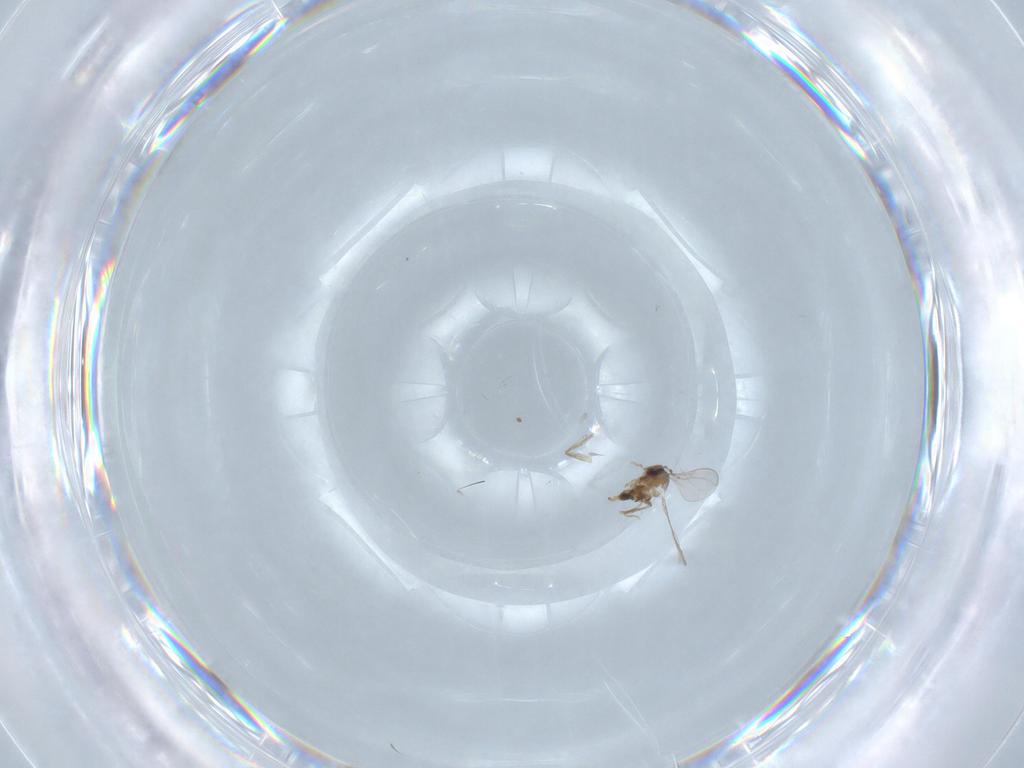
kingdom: Animalia
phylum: Arthropoda
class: Insecta
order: Diptera
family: Cecidomyiidae
